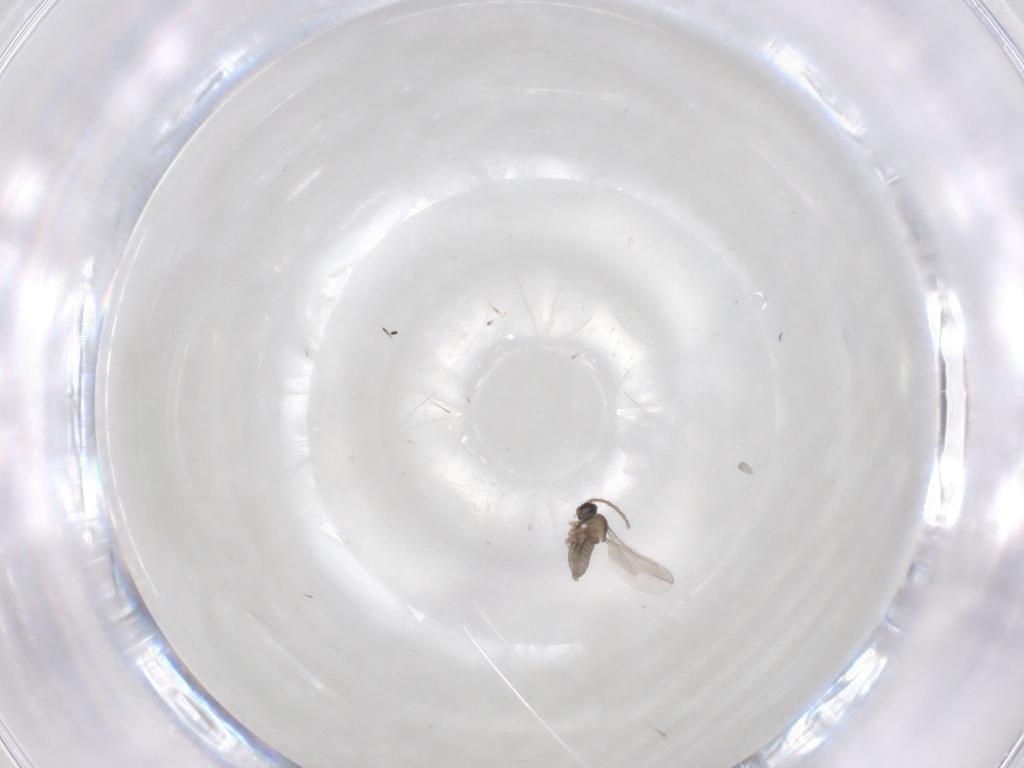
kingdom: Animalia
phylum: Arthropoda
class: Insecta
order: Diptera
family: Cecidomyiidae
